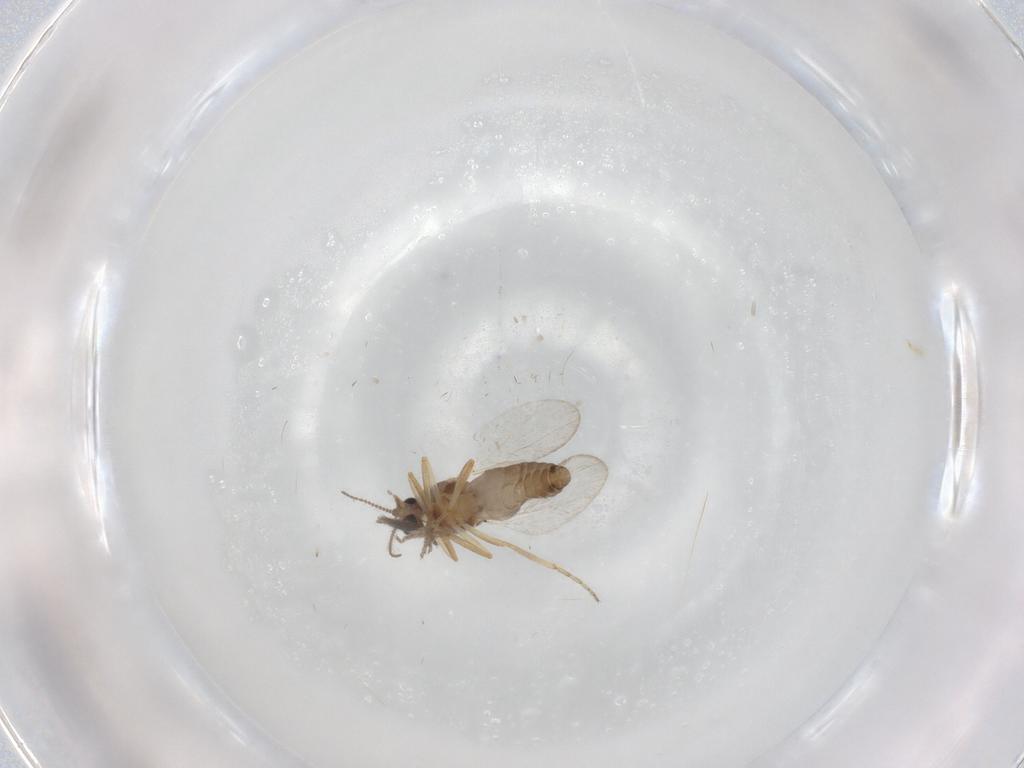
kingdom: Animalia
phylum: Arthropoda
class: Insecta
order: Diptera
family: Ceratopogonidae
